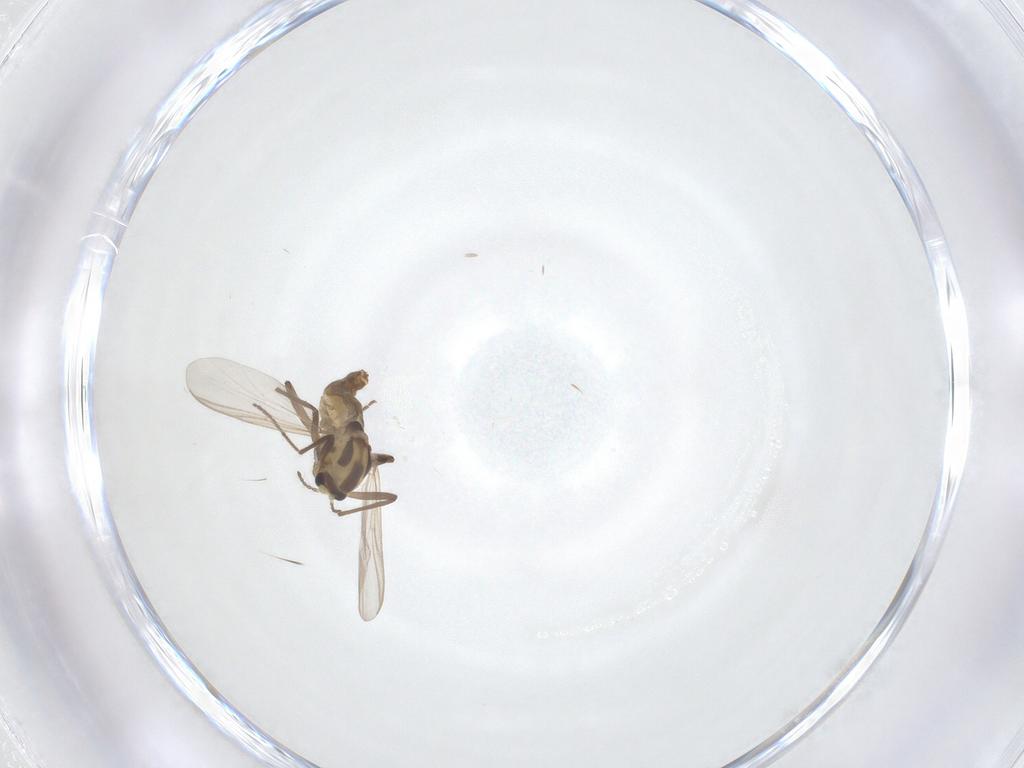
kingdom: Animalia
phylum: Arthropoda
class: Insecta
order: Diptera
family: Chironomidae
